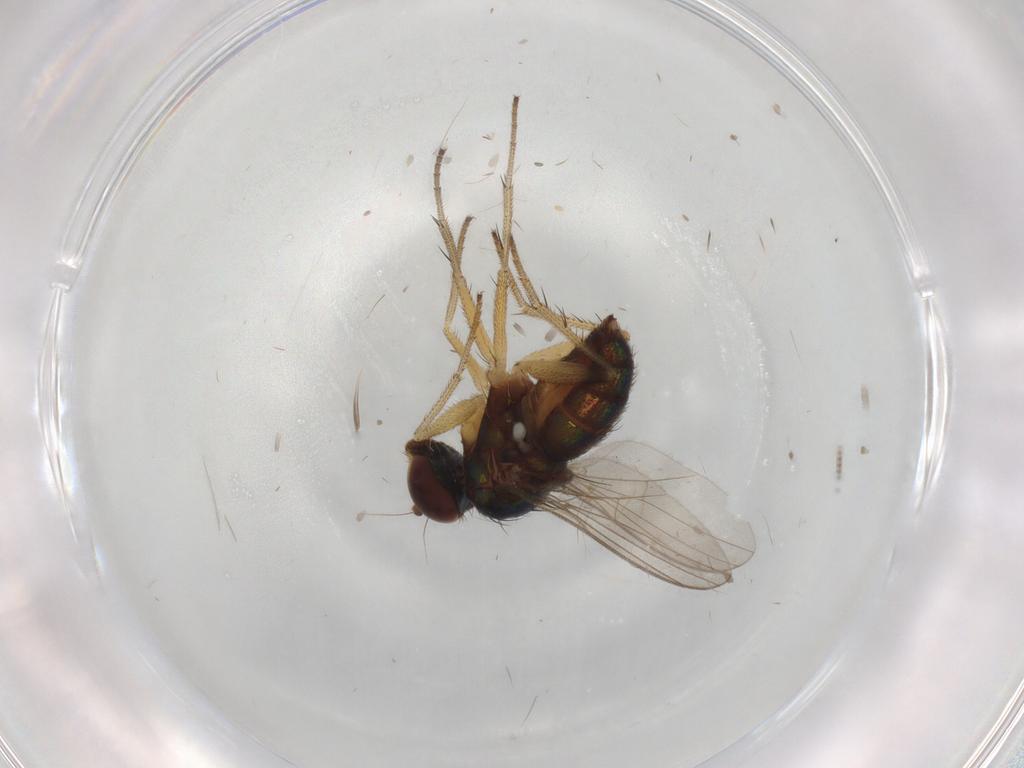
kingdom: Animalia
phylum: Arthropoda
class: Insecta
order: Diptera
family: Dolichopodidae
